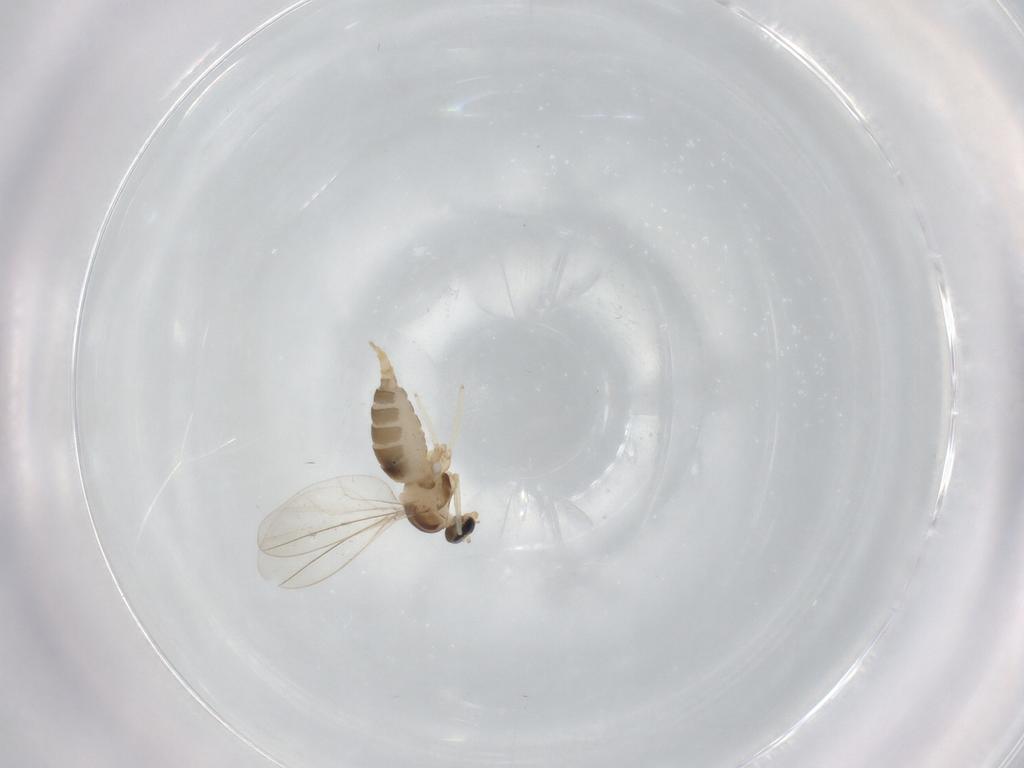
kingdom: Animalia
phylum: Arthropoda
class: Insecta
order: Diptera
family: Cecidomyiidae
